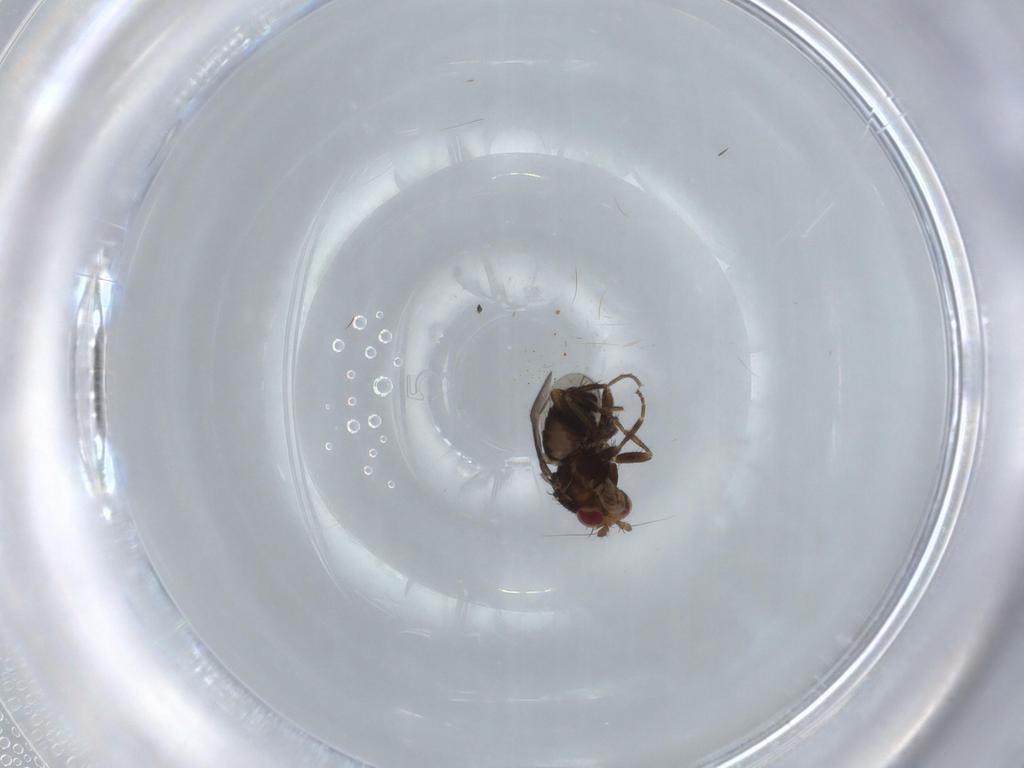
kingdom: Animalia
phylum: Arthropoda
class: Insecta
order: Diptera
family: Sphaeroceridae
